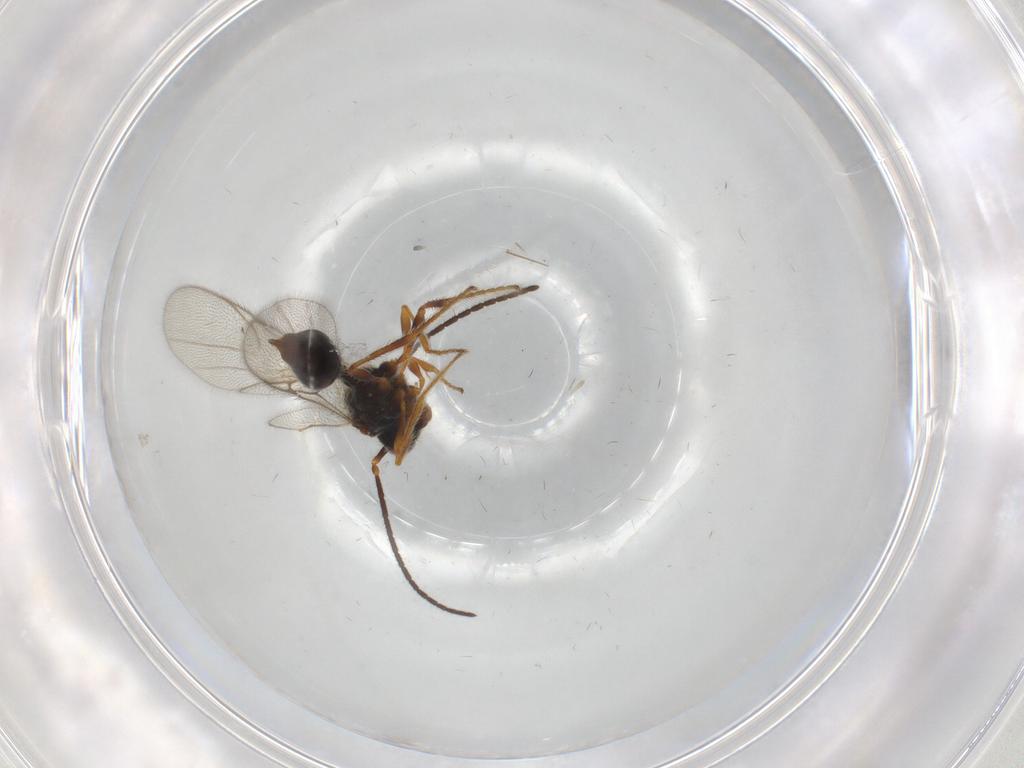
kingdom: Animalia
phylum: Arthropoda
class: Insecta
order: Hymenoptera
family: Diapriidae
